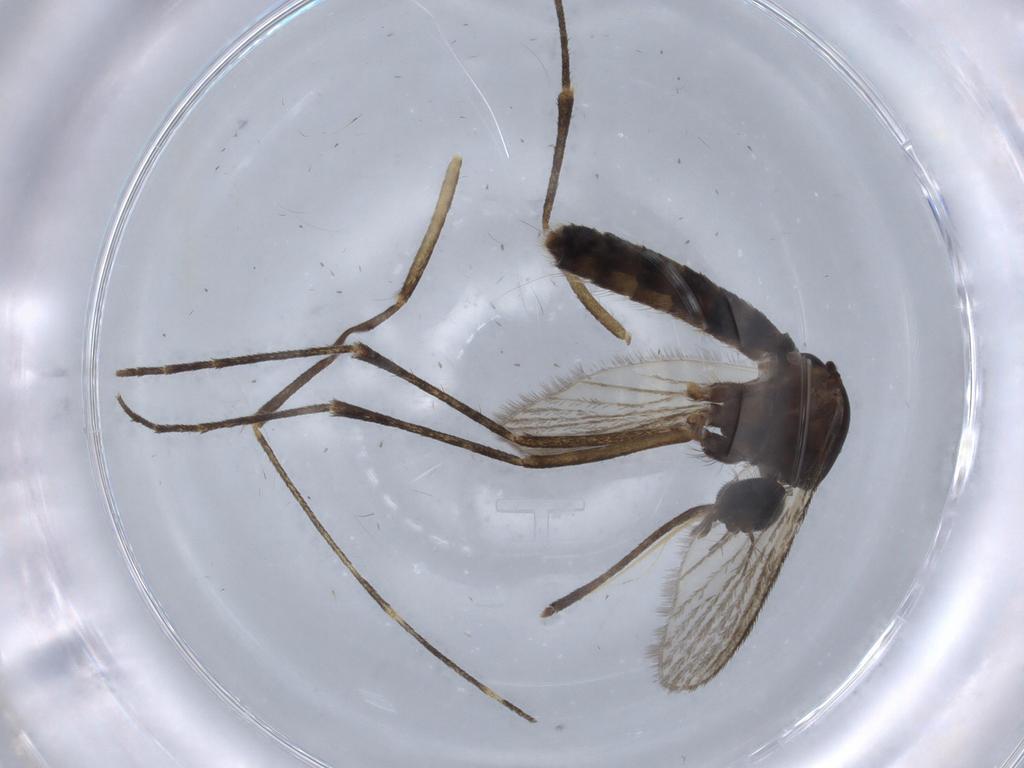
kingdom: Animalia
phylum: Arthropoda
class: Insecta
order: Diptera
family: Cecidomyiidae
